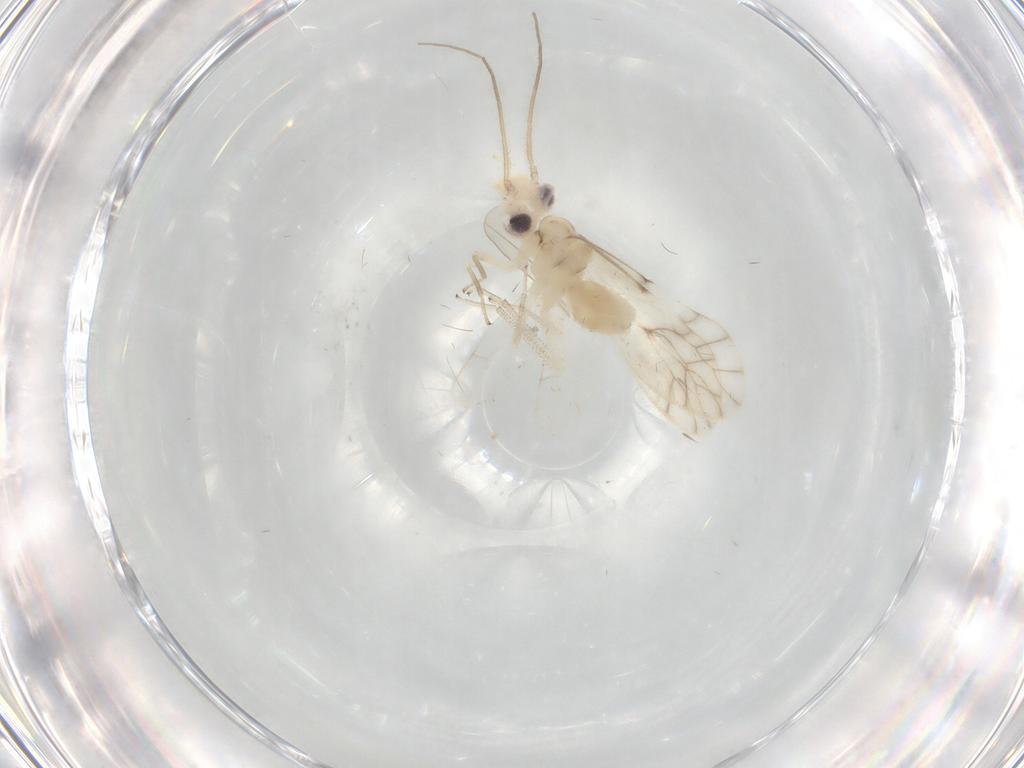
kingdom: Animalia
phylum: Arthropoda
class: Insecta
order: Psocodea
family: Caeciliusidae
